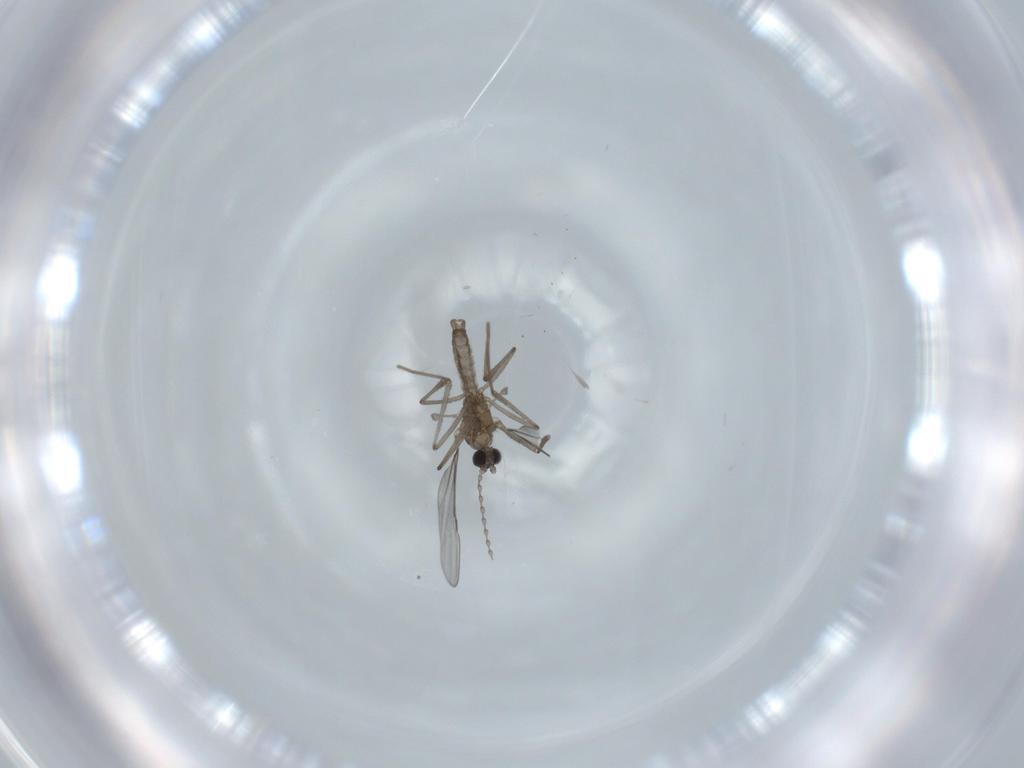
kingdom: Animalia
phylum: Arthropoda
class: Insecta
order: Diptera
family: Cecidomyiidae
